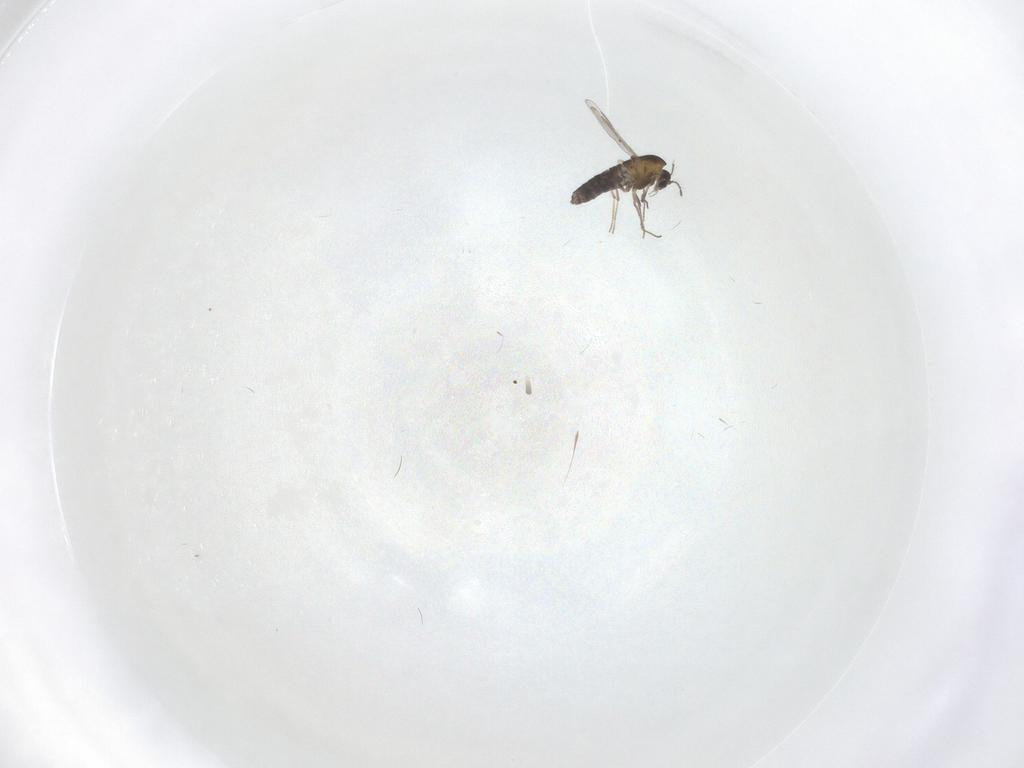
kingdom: Animalia
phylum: Arthropoda
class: Insecta
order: Diptera
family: Chironomidae
